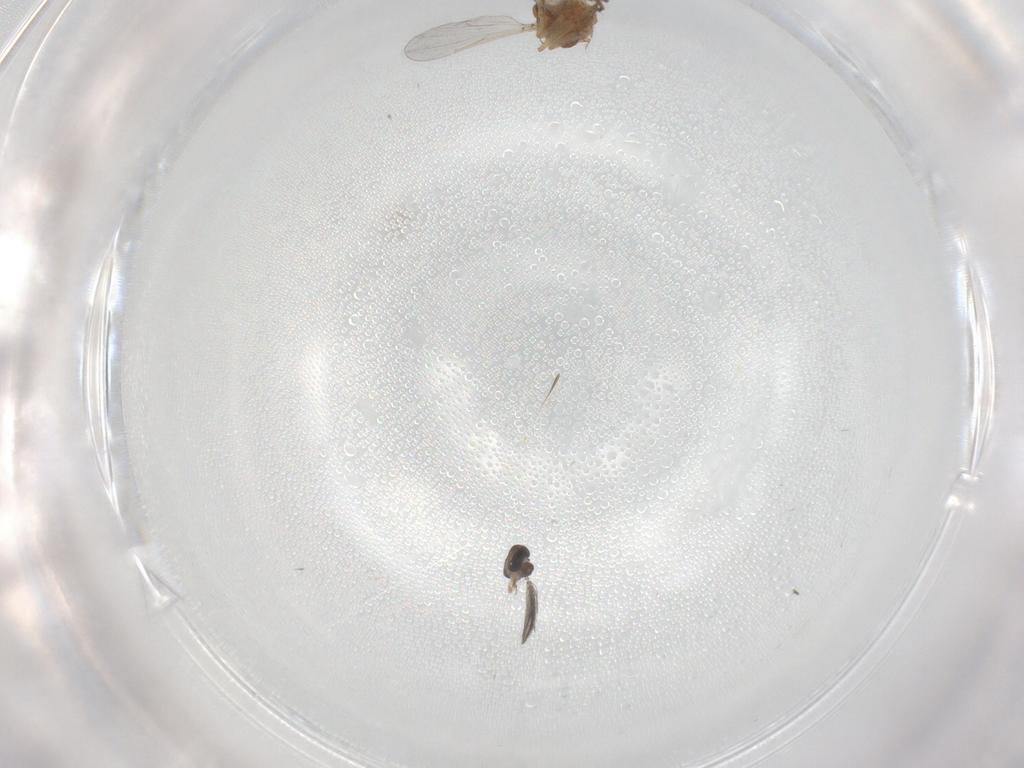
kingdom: Animalia
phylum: Arthropoda
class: Insecta
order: Diptera
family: Ceratopogonidae
